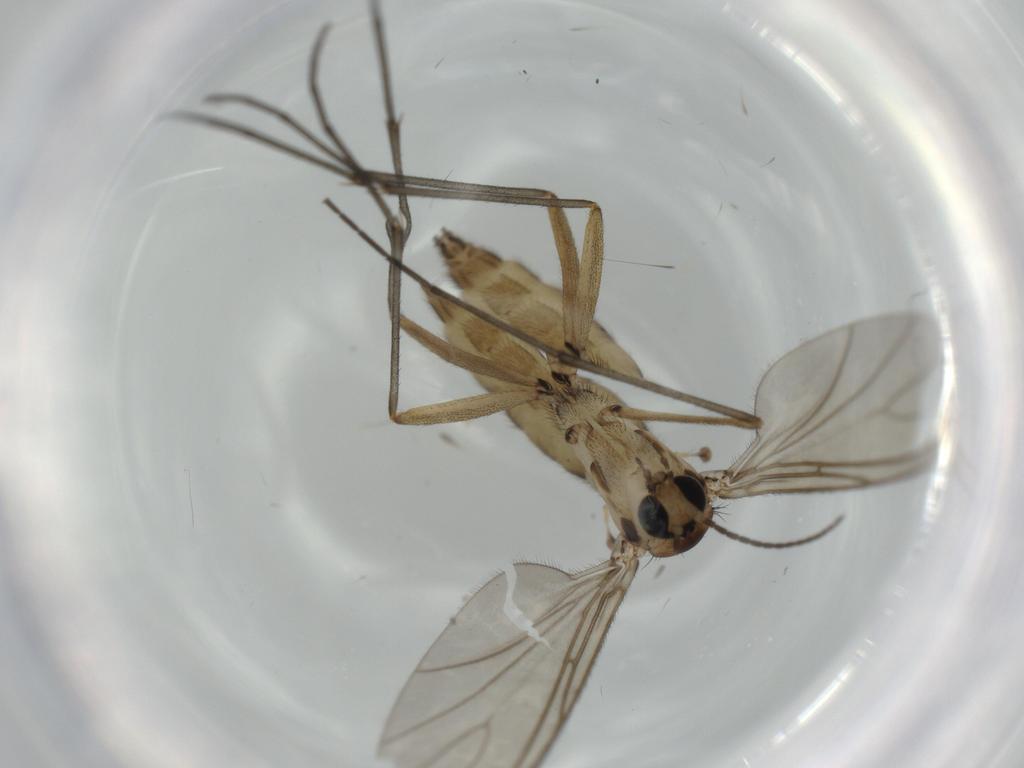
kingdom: Animalia
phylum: Arthropoda
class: Insecta
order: Diptera
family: Sciaridae
